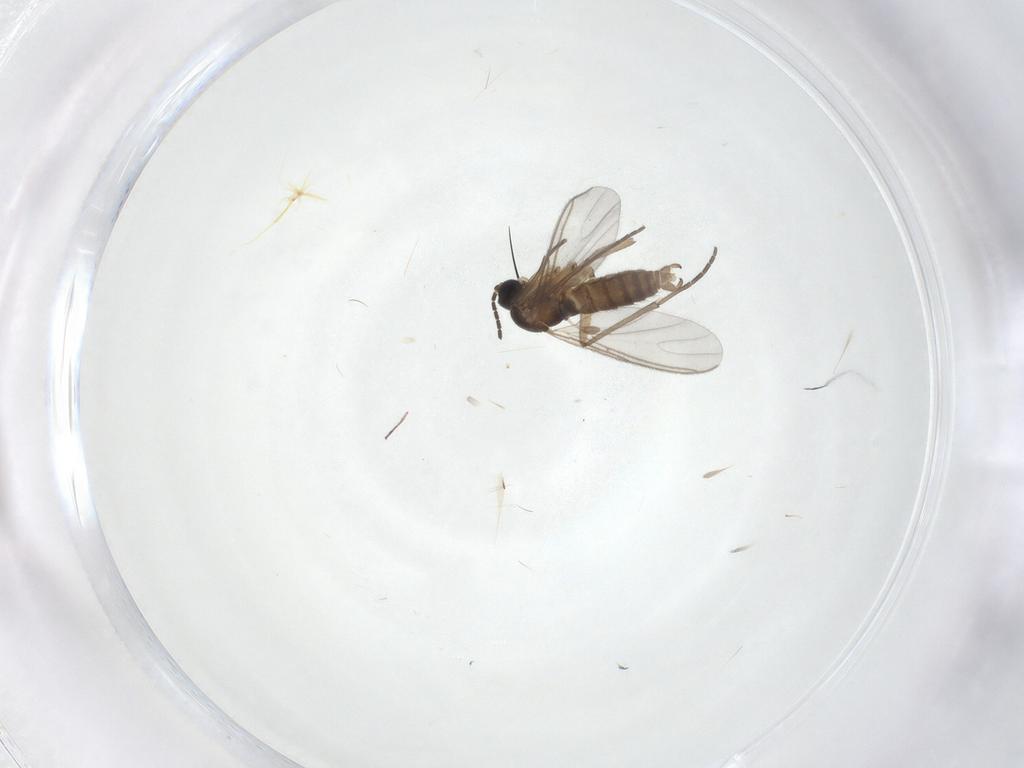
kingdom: Animalia
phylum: Arthropoda
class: Insecta
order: Diptera
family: Sciaridae
